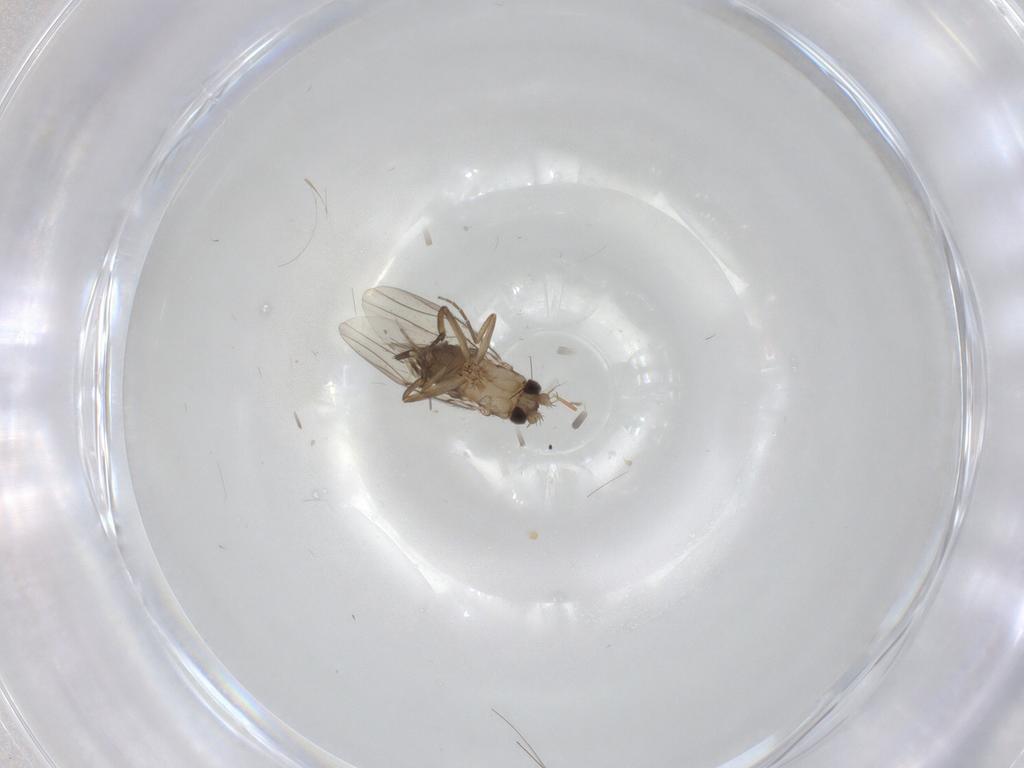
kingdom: Animalia
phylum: Arthropoda
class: Insecta
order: Diptera
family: Phoridae
